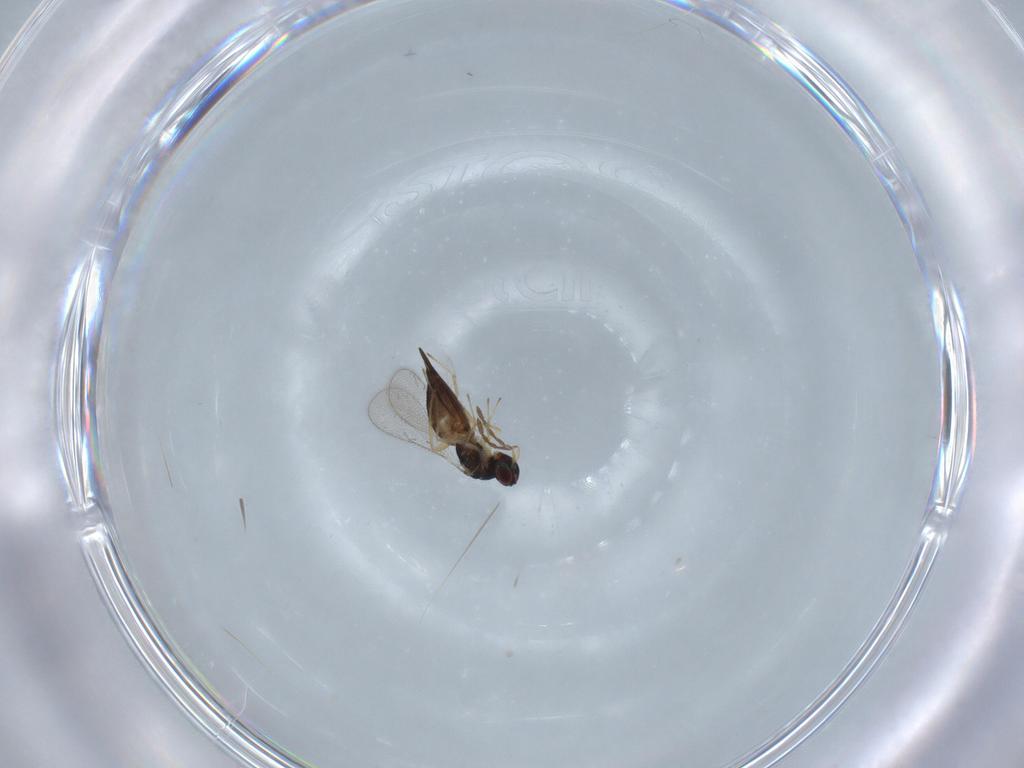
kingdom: Animalia
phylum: Arthropoda
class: Insecta
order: Hymenoptera
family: Eulophidae
